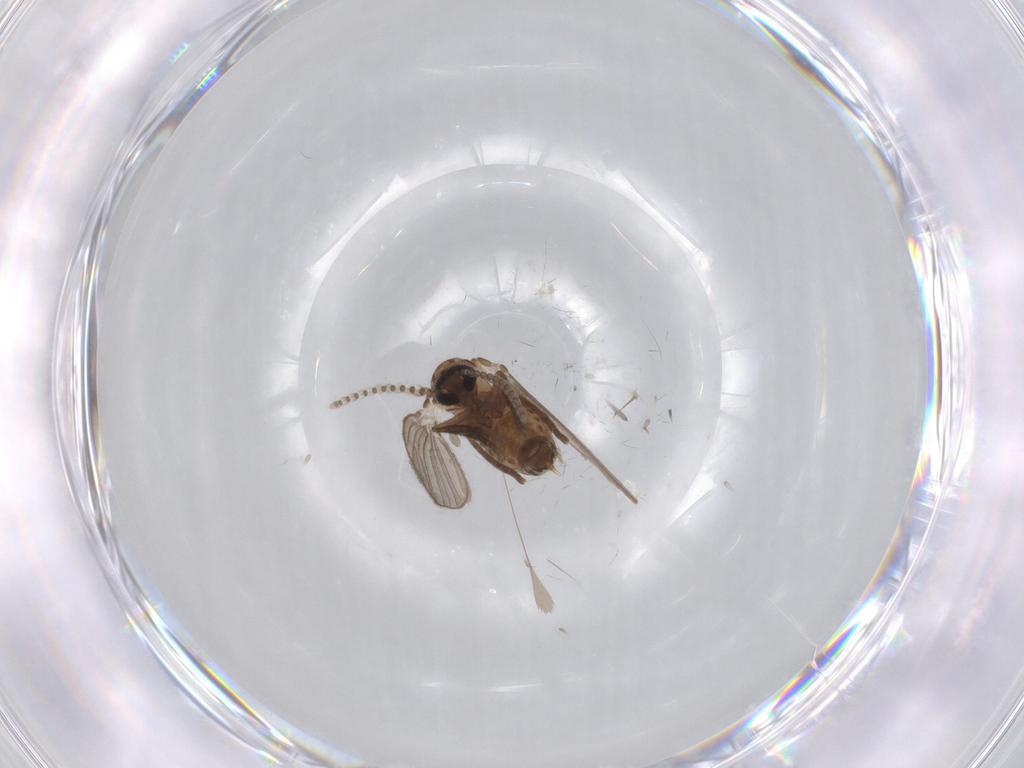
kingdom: Animalia
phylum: Arthropoda
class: Insecta
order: Diptera
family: Psychodidae
